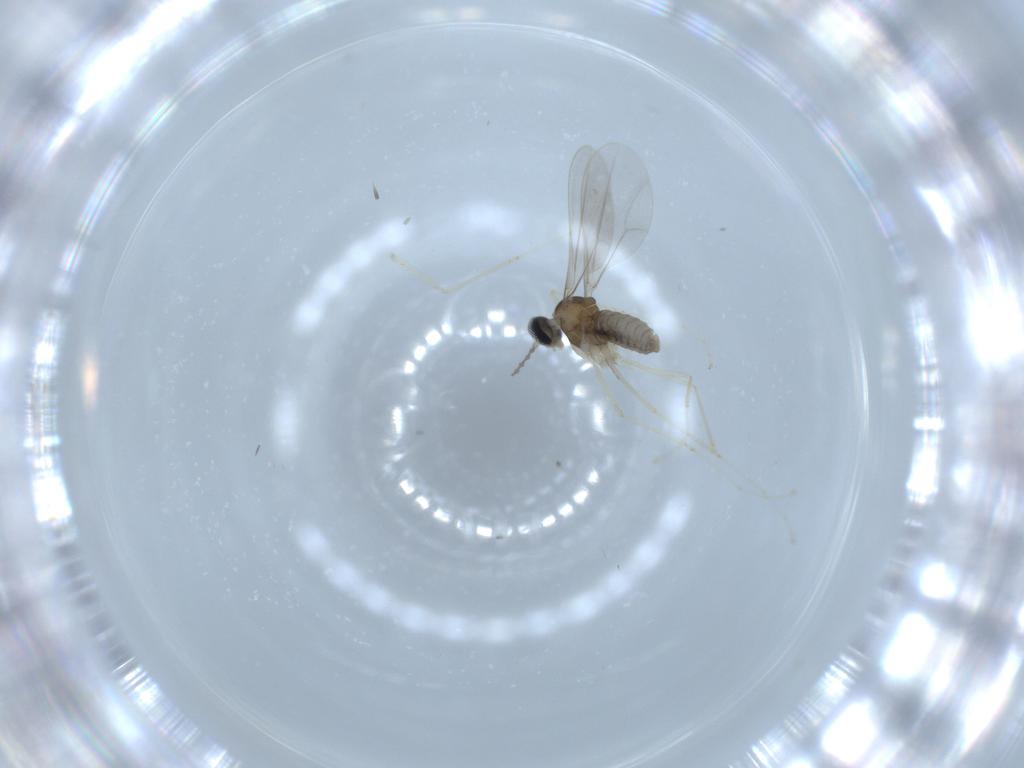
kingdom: Animalia
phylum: Arthropoda
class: Insecta
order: Diptera
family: Cecidomyiidae
